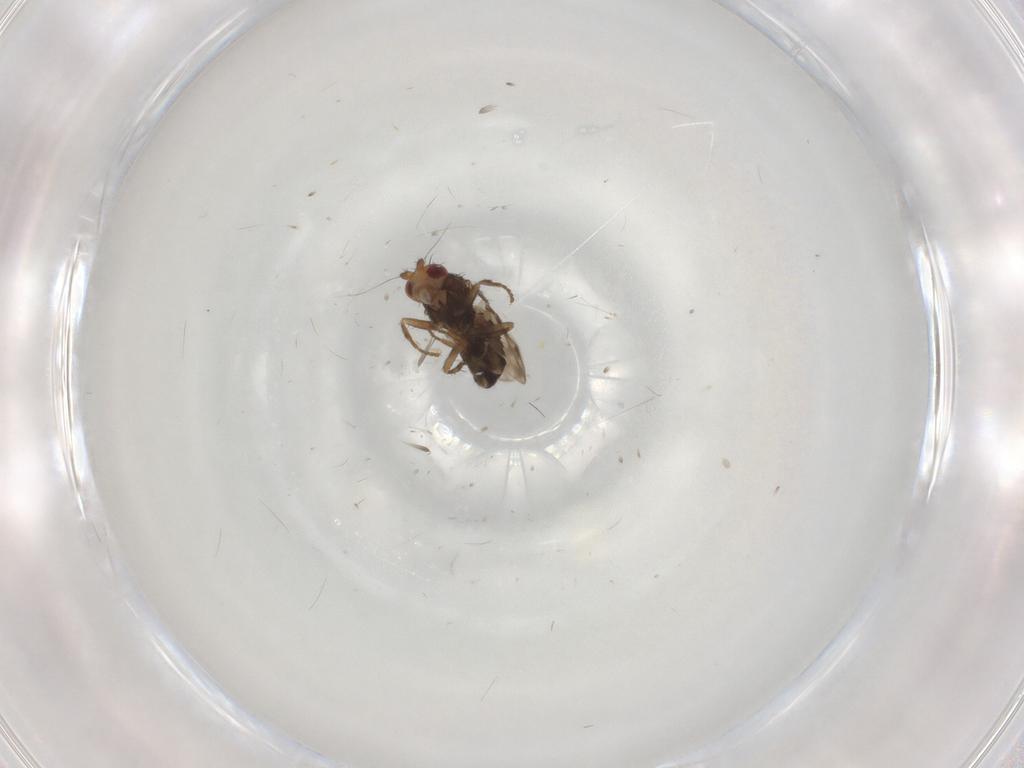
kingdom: Animalia
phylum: Arthropoda
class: Insecta
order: Diptera
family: Sphaeroceridae
